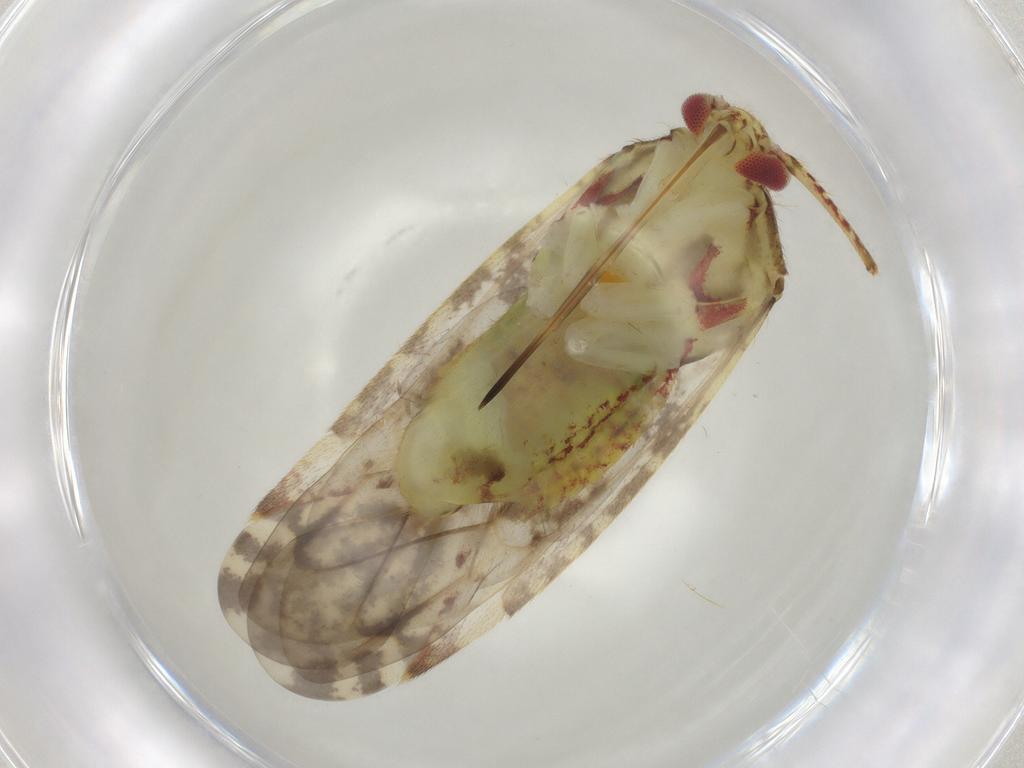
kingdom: Animalia
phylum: Arthropoda
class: Insecta
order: Hemiptera
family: Miridae
